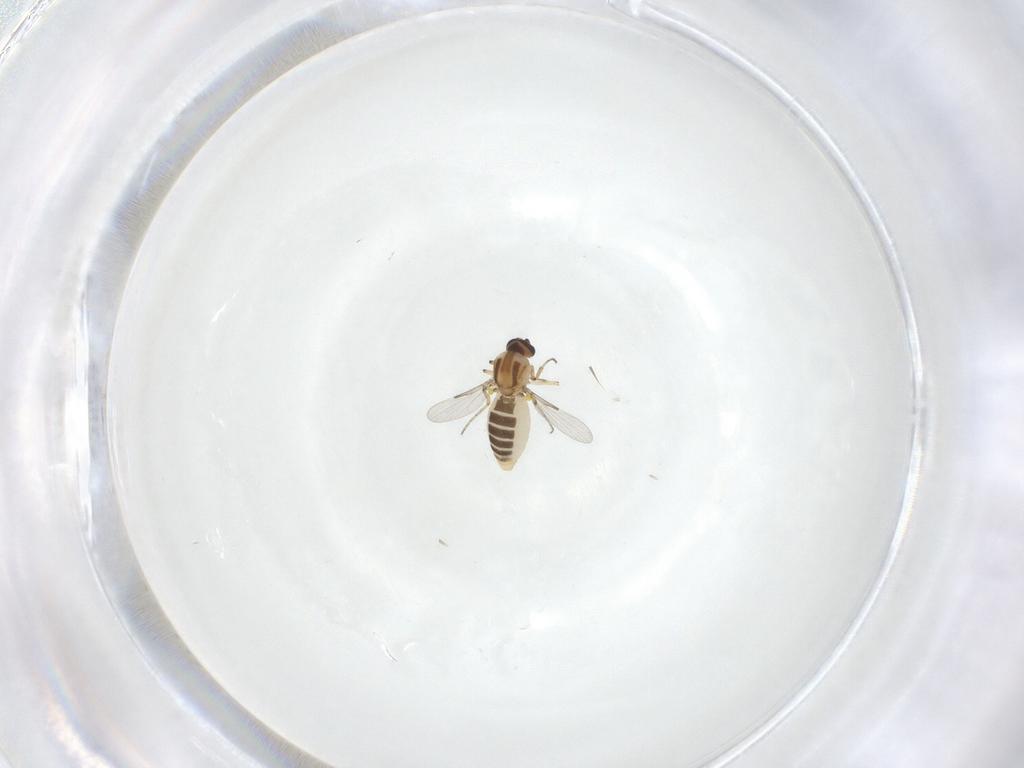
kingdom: Animalia
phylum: Arthropoda
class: Insecta
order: Diptera
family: Ceratopogonidae
